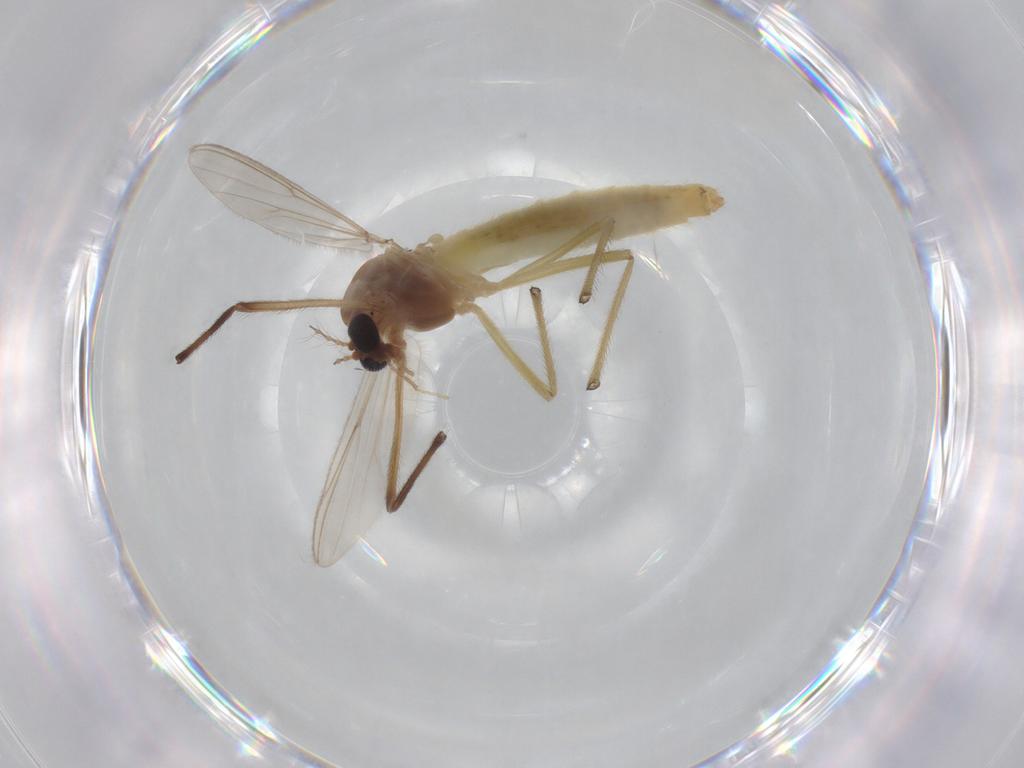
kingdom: Animalia
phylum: Arthropoda
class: Insecta
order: Diptera
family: Chironomidae
